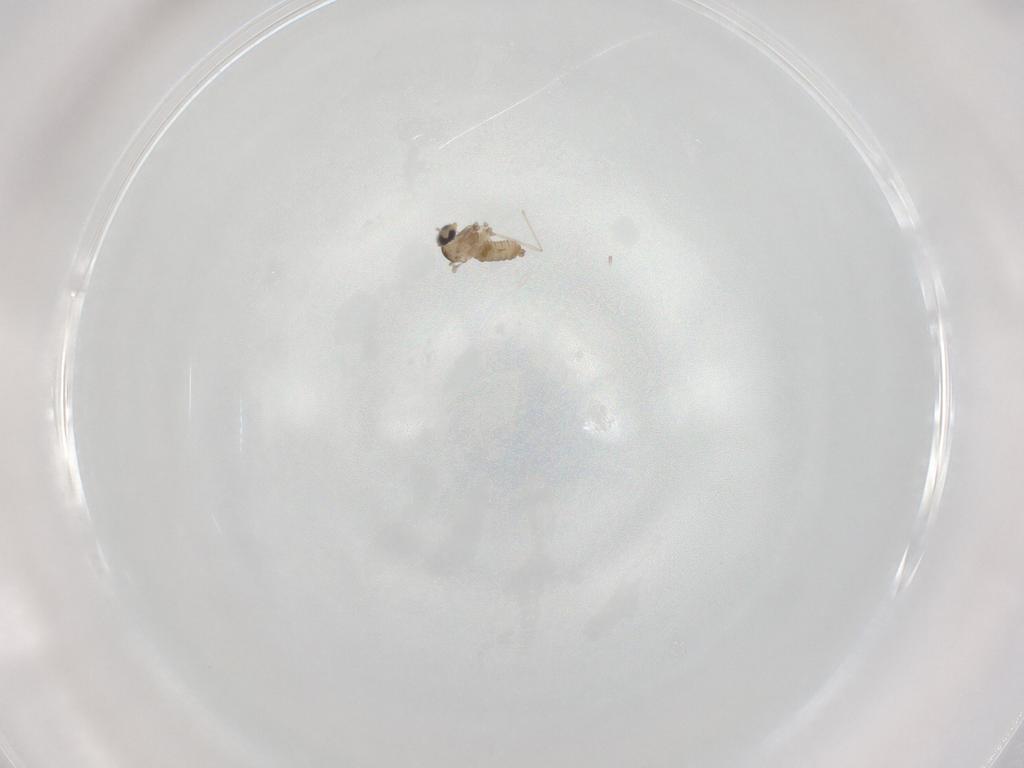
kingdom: Animalia
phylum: Arthropoda
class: Insecta
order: Diptera
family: Cecidomyiidae
